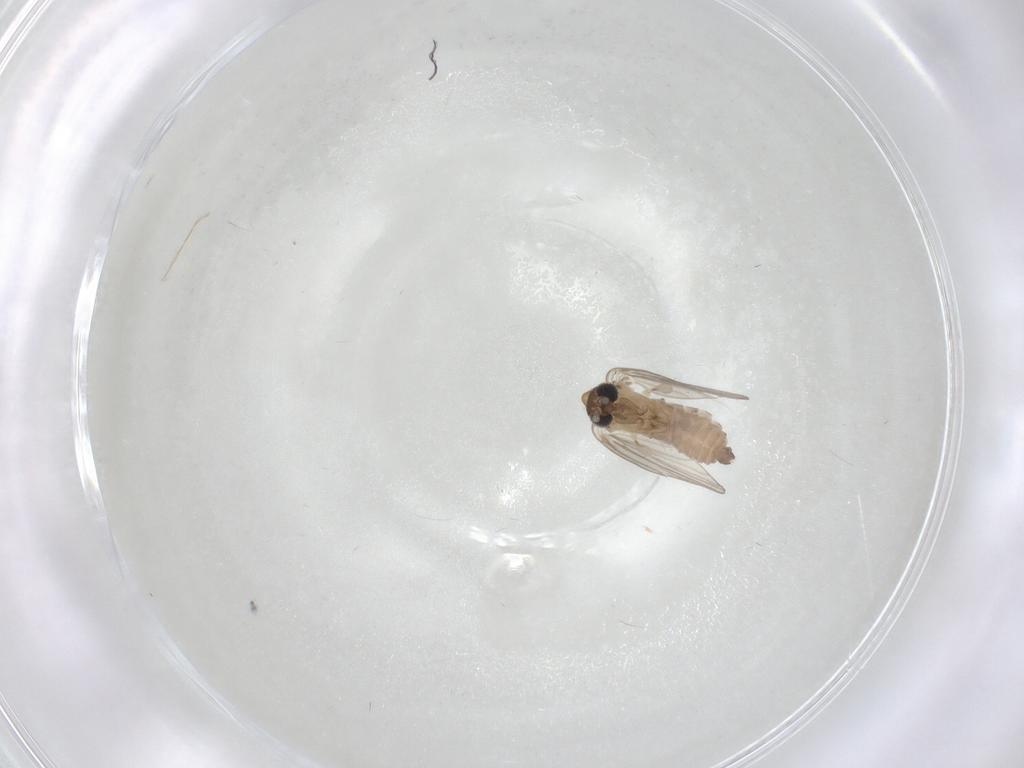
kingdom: Animalia
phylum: Arthropoda
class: Insecta
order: Diptera
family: Psychodidae
